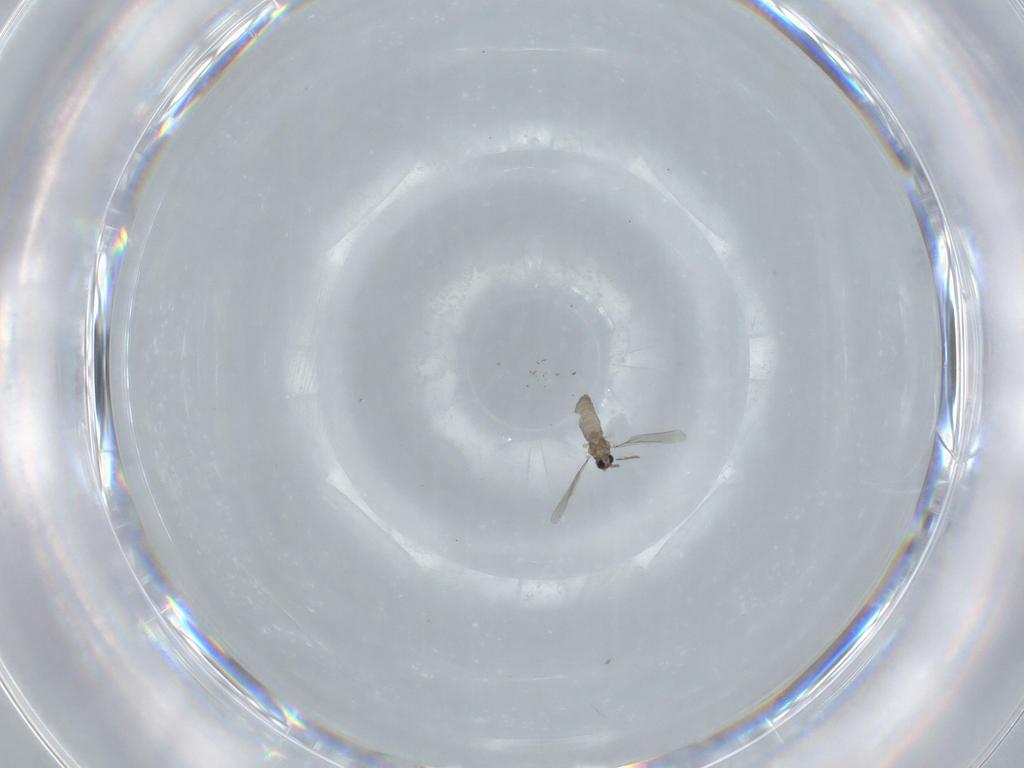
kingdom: Animalia
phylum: Arthropoda
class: Insecta
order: Diptera
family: Cecidomyiidae
